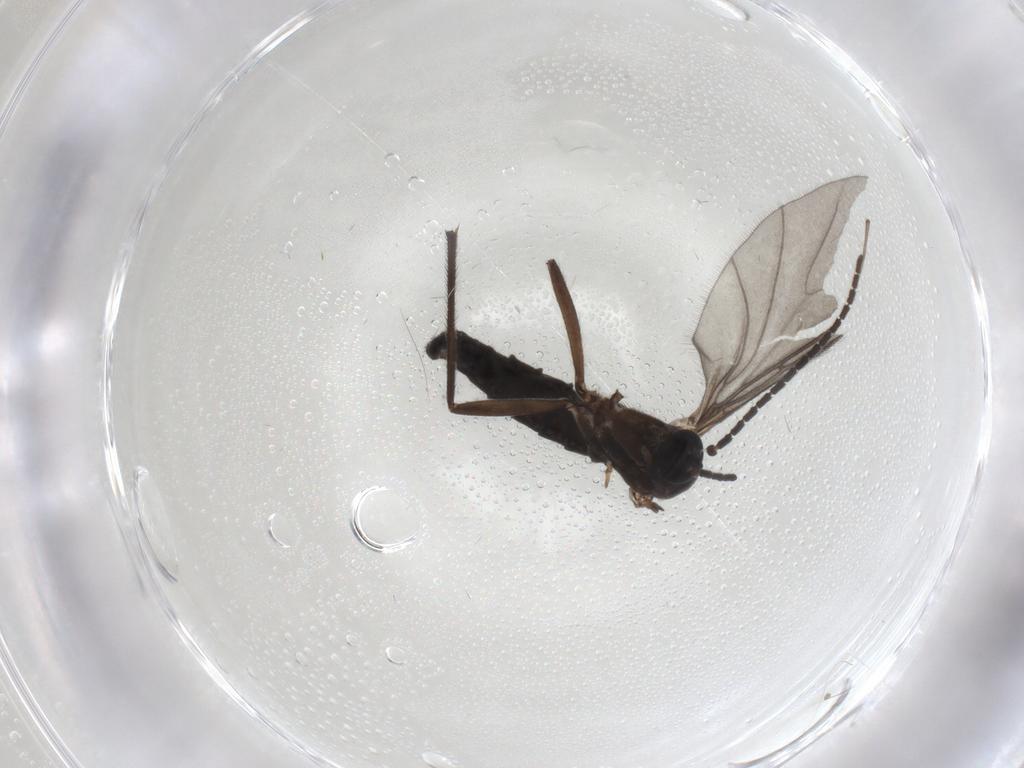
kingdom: Animalia
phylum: Arthropoda
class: Insecta
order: Diptera
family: Sciaridae
